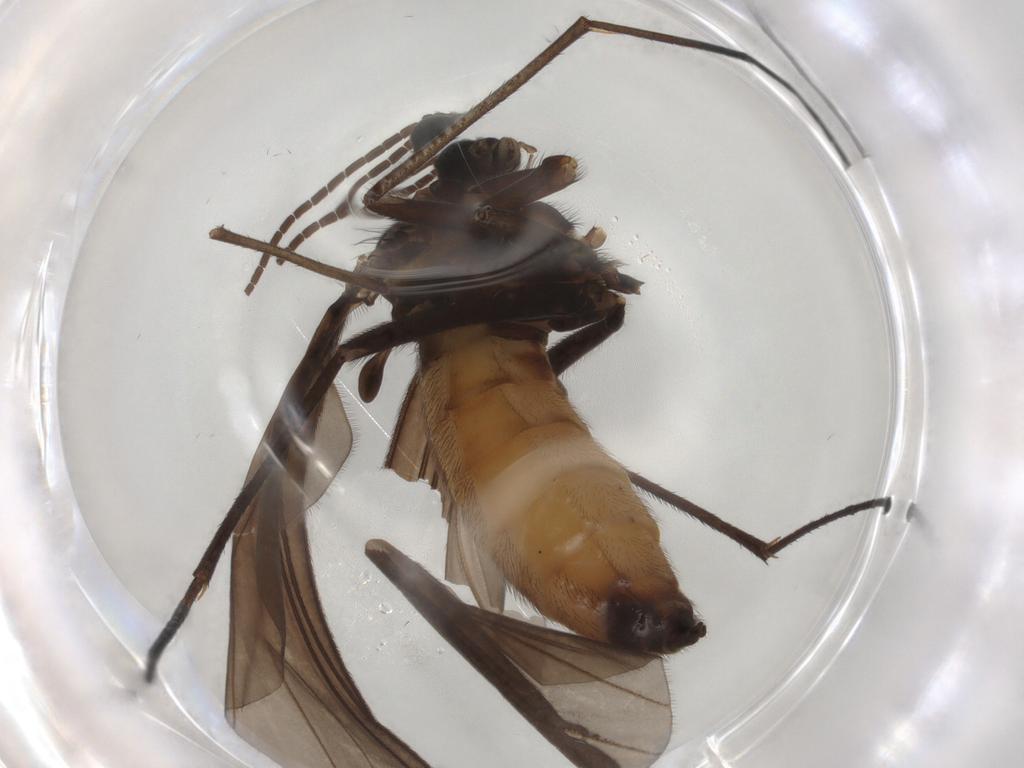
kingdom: Animalia
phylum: Arthropoda
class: Insecta
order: Diptera
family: Sciaridae
